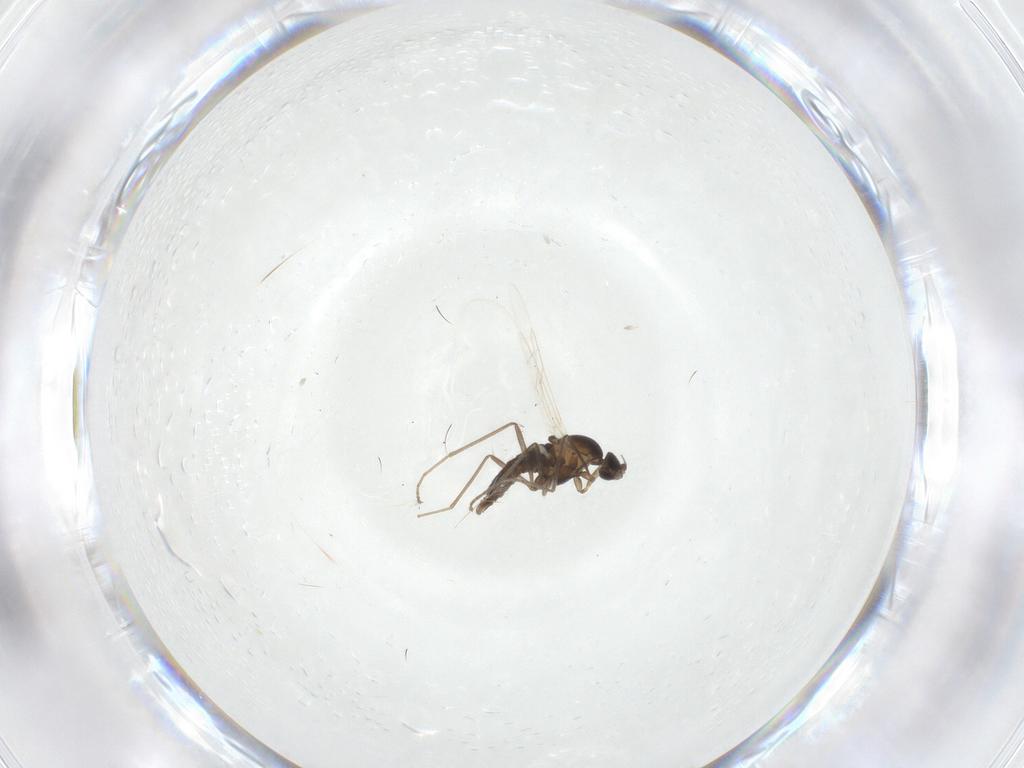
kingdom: Animalia
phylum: Arthropoda
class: Insecta
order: Diptera
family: Cecidomyiidae
